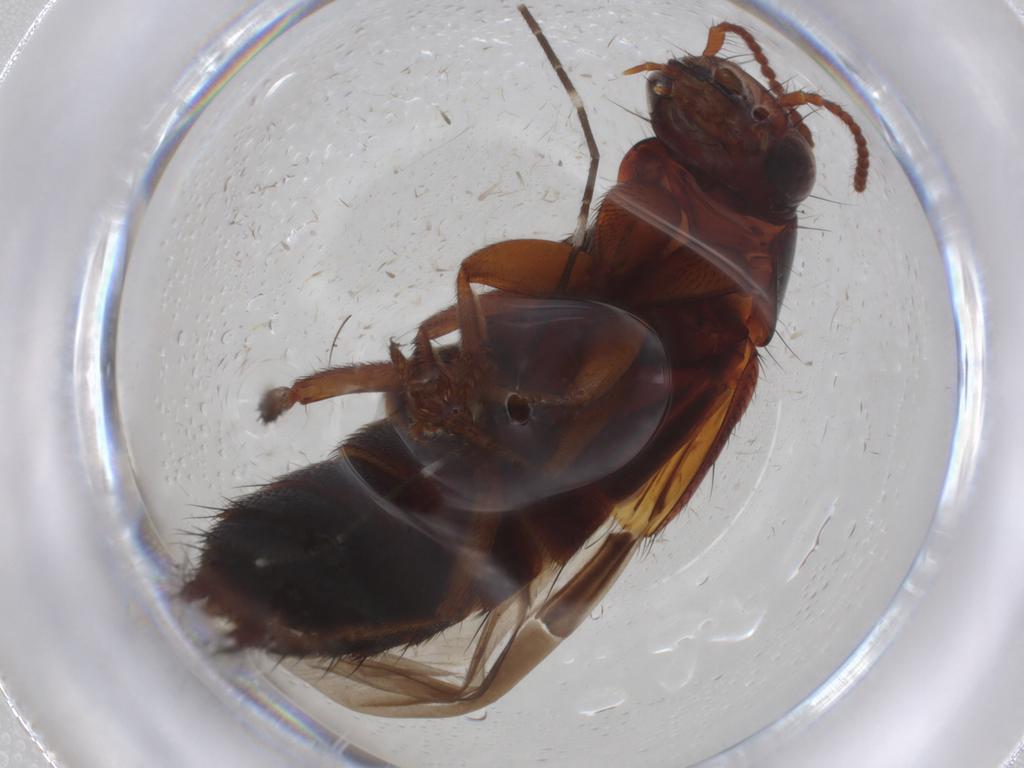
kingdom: Animalia
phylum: Arthropoda
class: Insecta
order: Coleoptera
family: Staphylinidae
